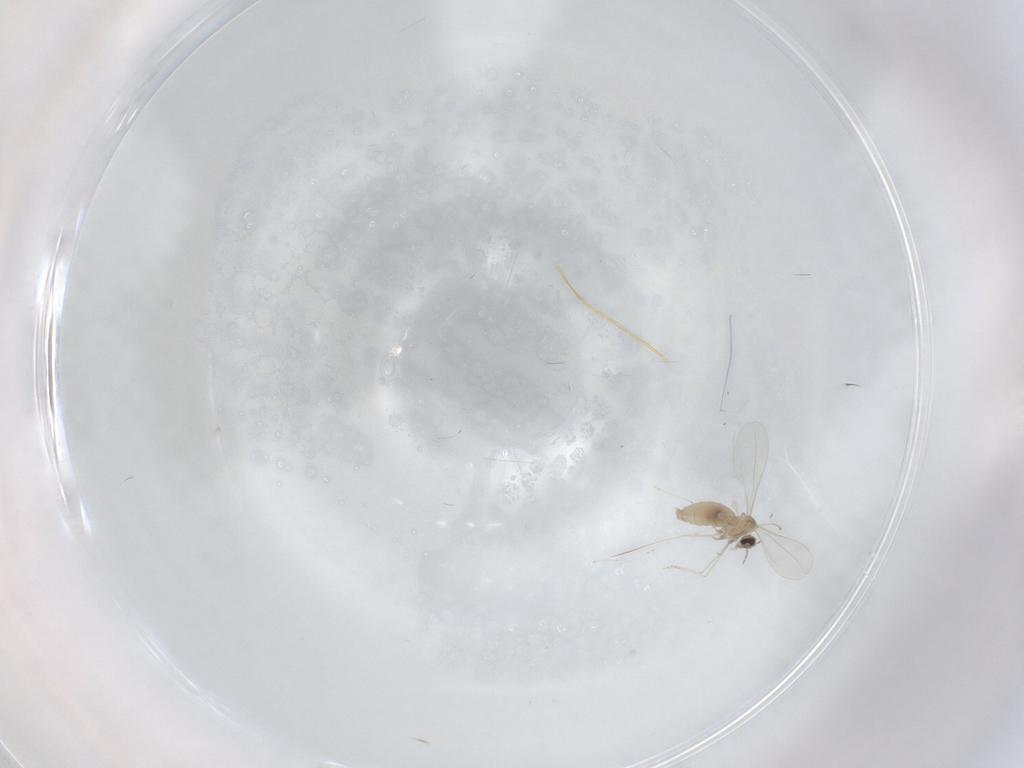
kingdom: Animalia
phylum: Arthropoda
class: Insecta
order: Diptera
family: Cecidomyiidae
